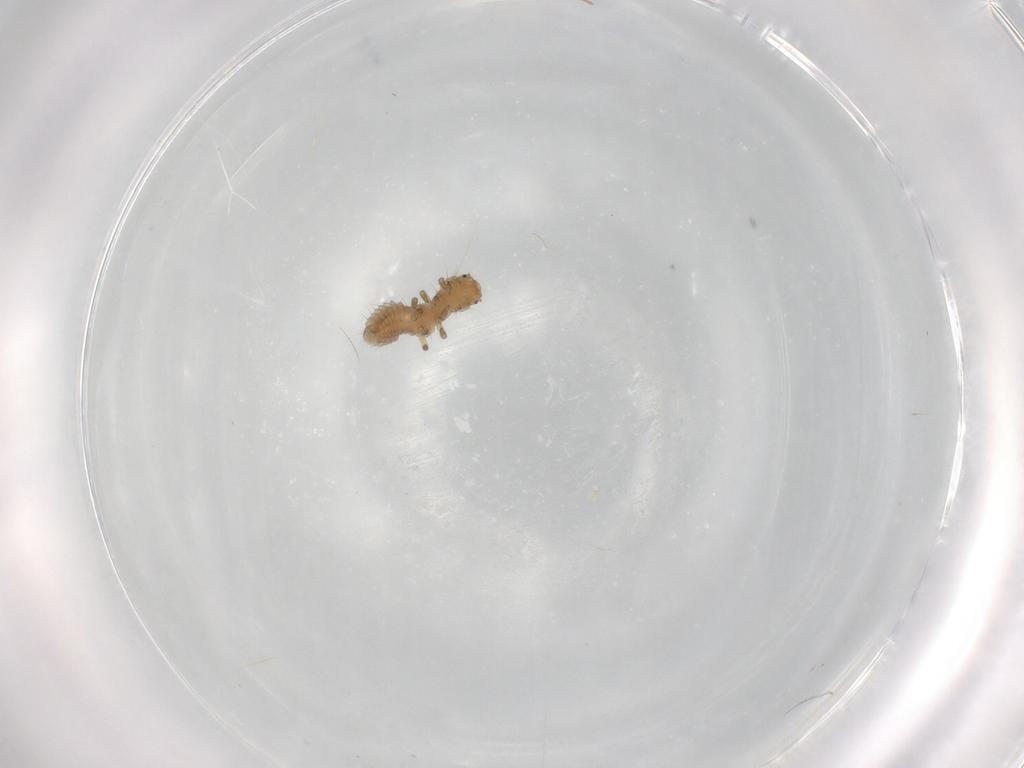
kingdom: Animalia
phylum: Arthropoda
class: Insecta
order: Coleoptera
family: Coccinellidae
